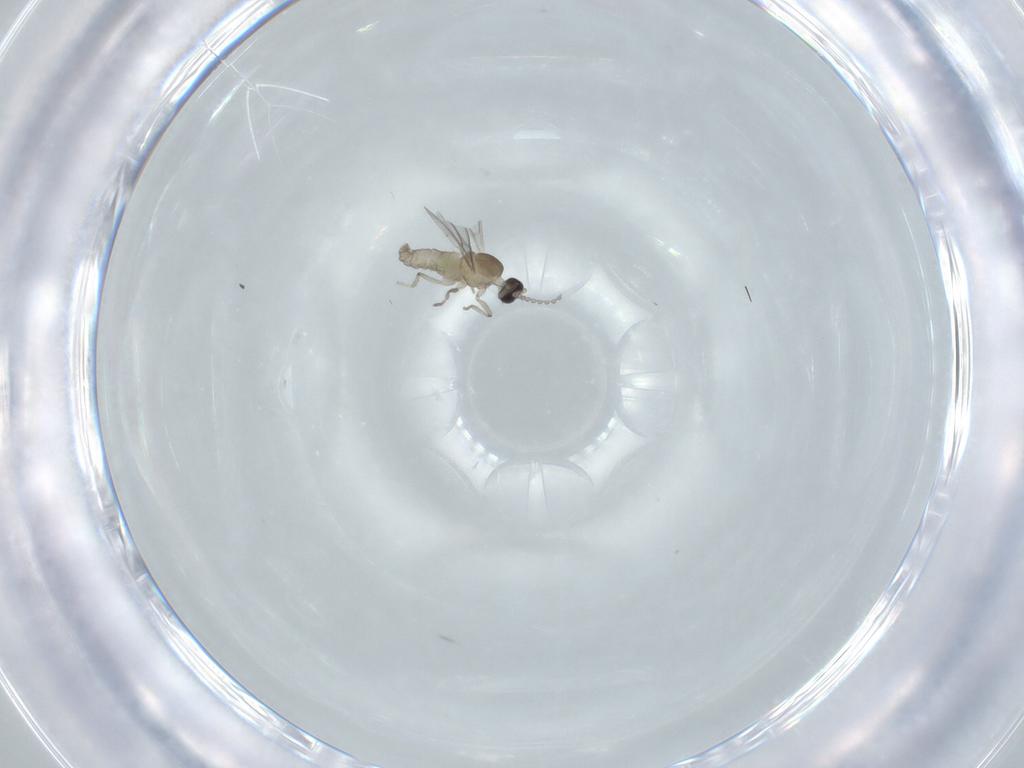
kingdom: Animalia
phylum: Arthropoda
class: Insecta
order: Diptera
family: Cecidomyiidae
